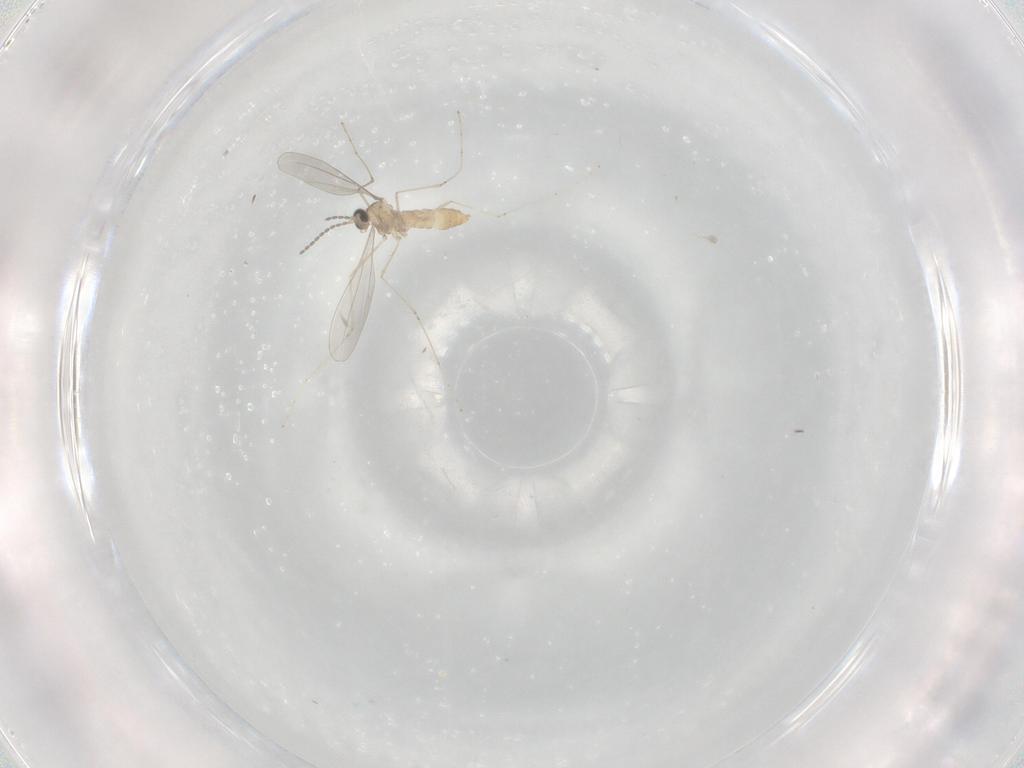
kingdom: Animalia
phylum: Arthropoda
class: Insecta
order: Diptera
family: Cecidomyiidae
